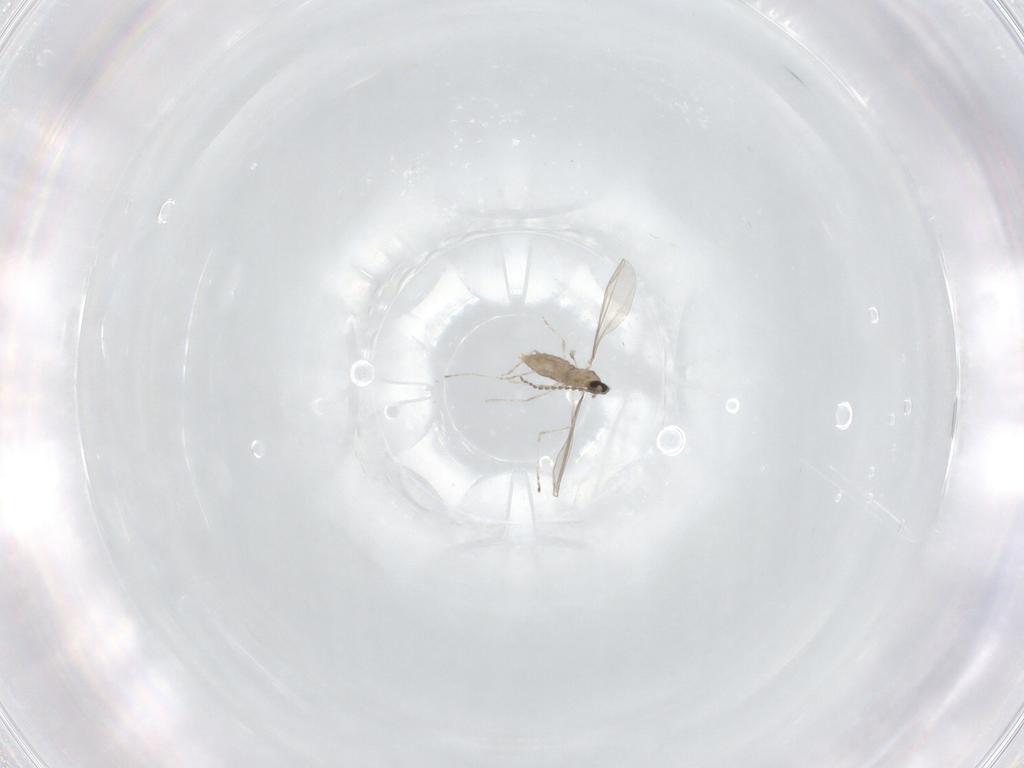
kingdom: Animalia
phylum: Arthropoda
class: Insecta
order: Diptera
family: Cecidomyiidae
